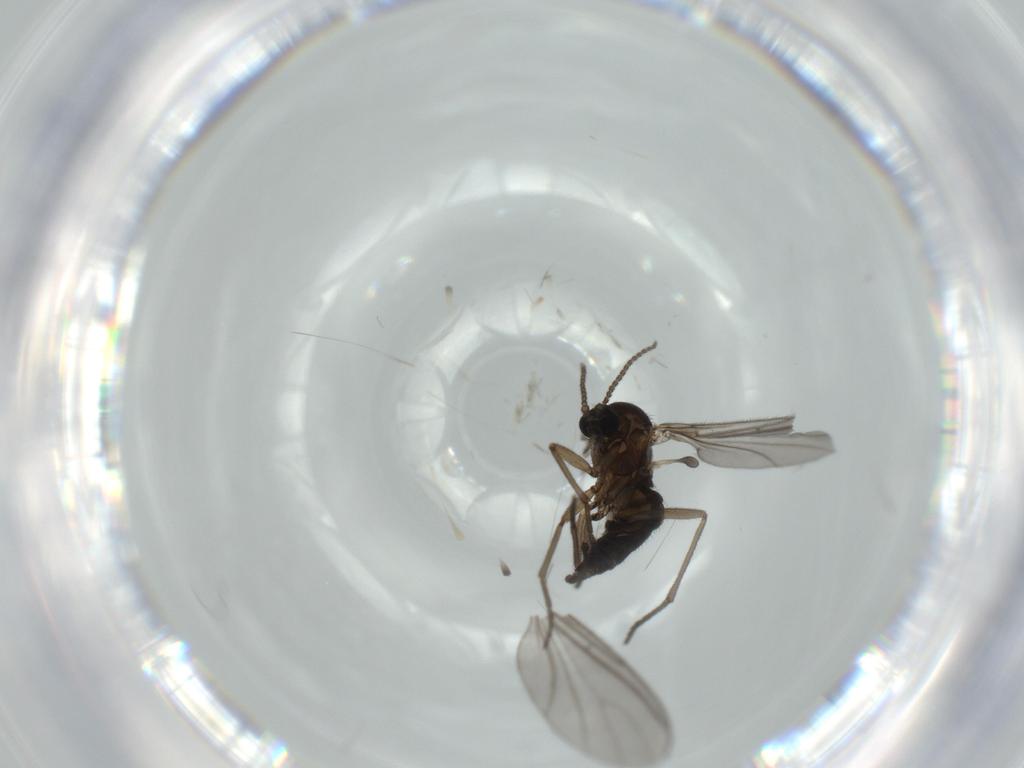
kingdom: Animalia
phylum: Arthropoda
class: Insecta
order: Diptera
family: Sciaridae
